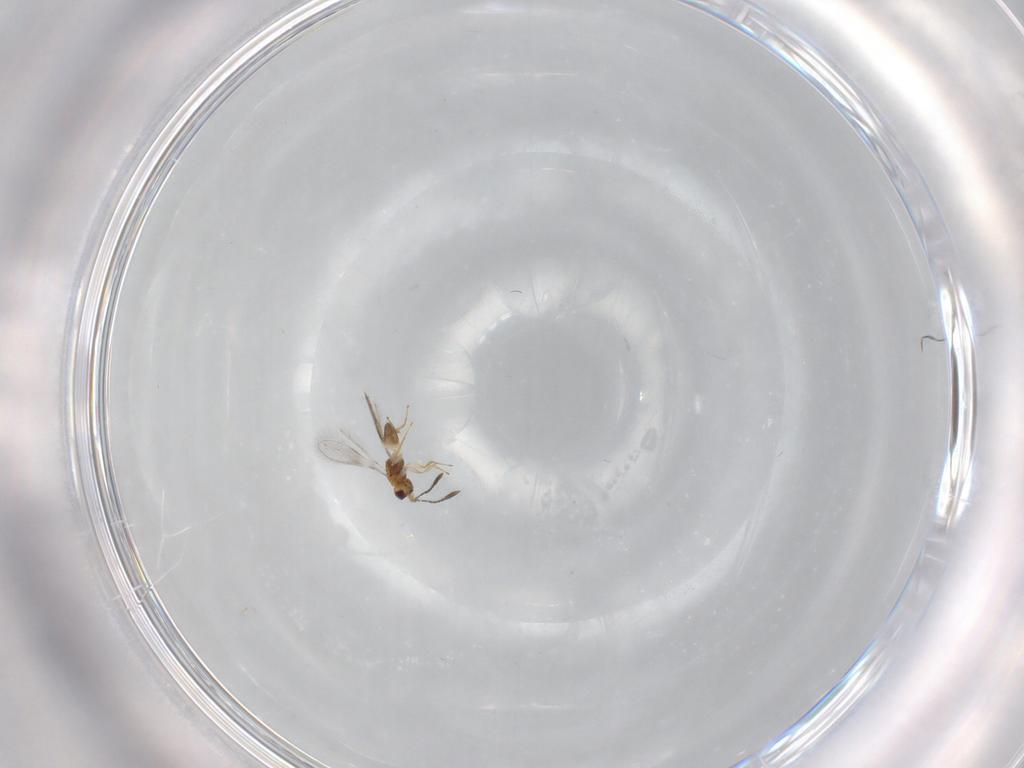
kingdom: Animalia
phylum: Arthropoda
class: Insecta
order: Hymenoptera
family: Mymaridae
